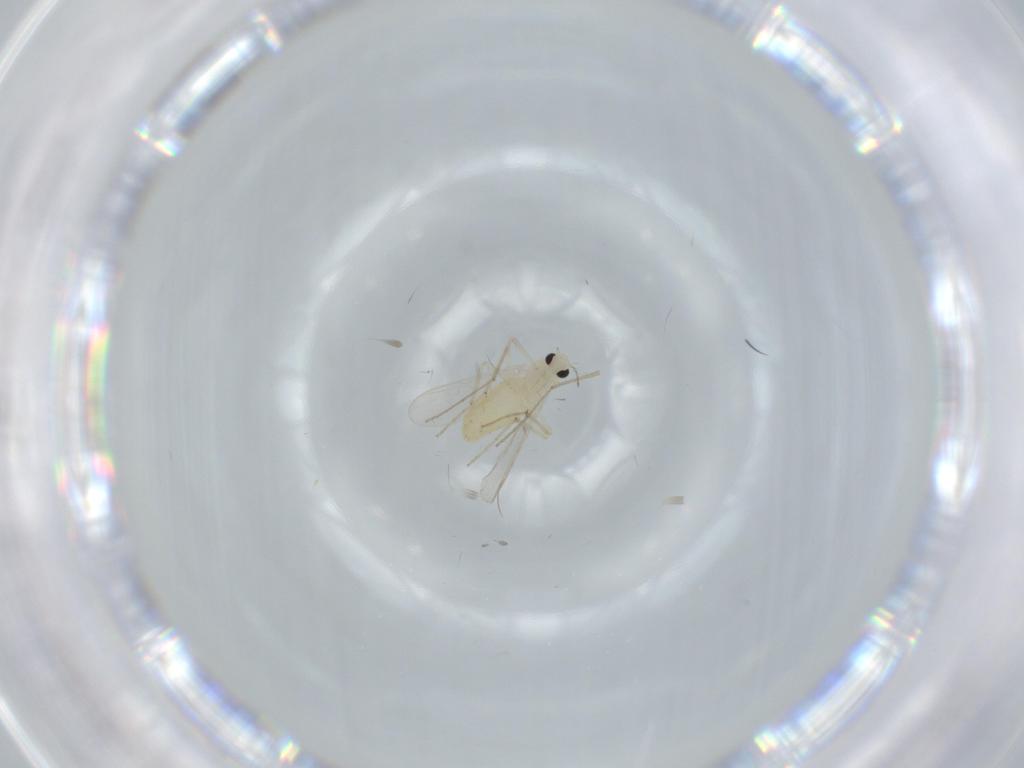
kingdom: Animalia
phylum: Arthropoda
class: Insecta
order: Diptera
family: Chironomidae
